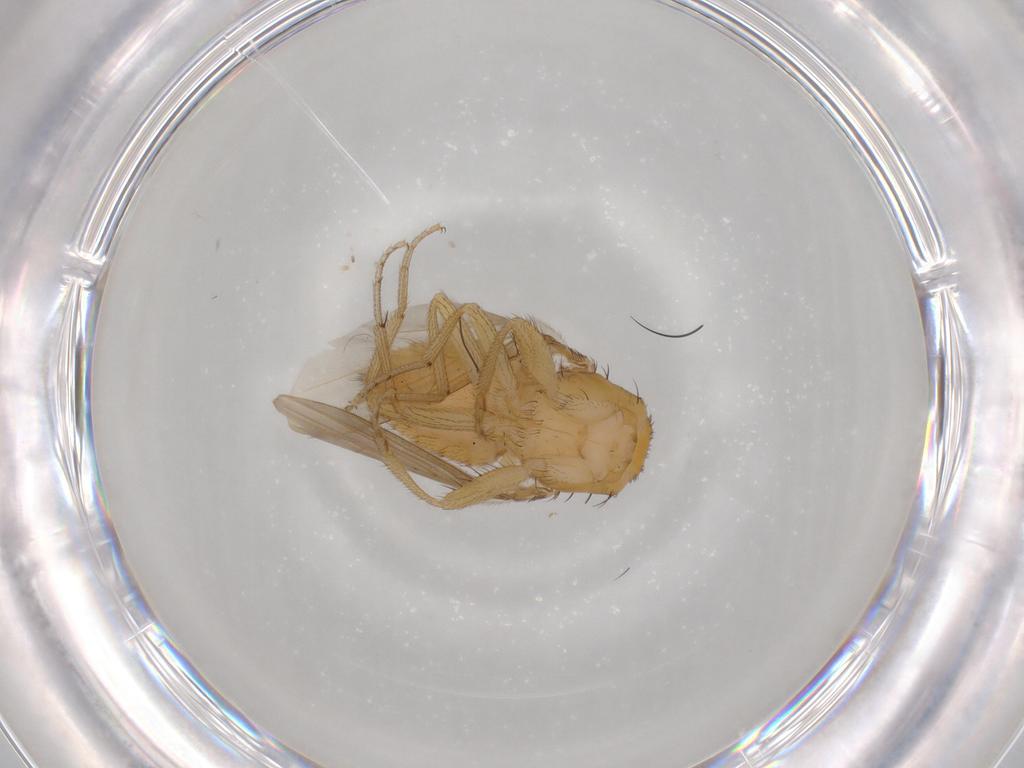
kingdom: Animalia
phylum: Arthropoda
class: Insecta
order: Diptera
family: Drosophilidae
